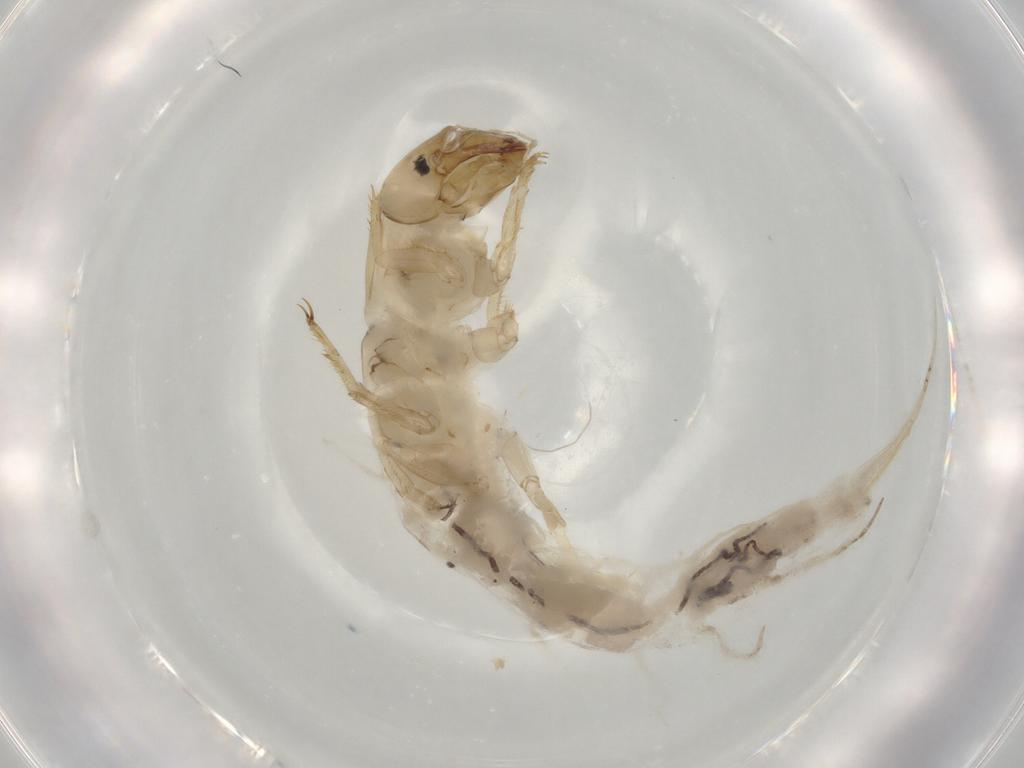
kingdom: Animalia
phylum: Arthropoda
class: Insecta
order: Megaloptera
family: Sialidae
